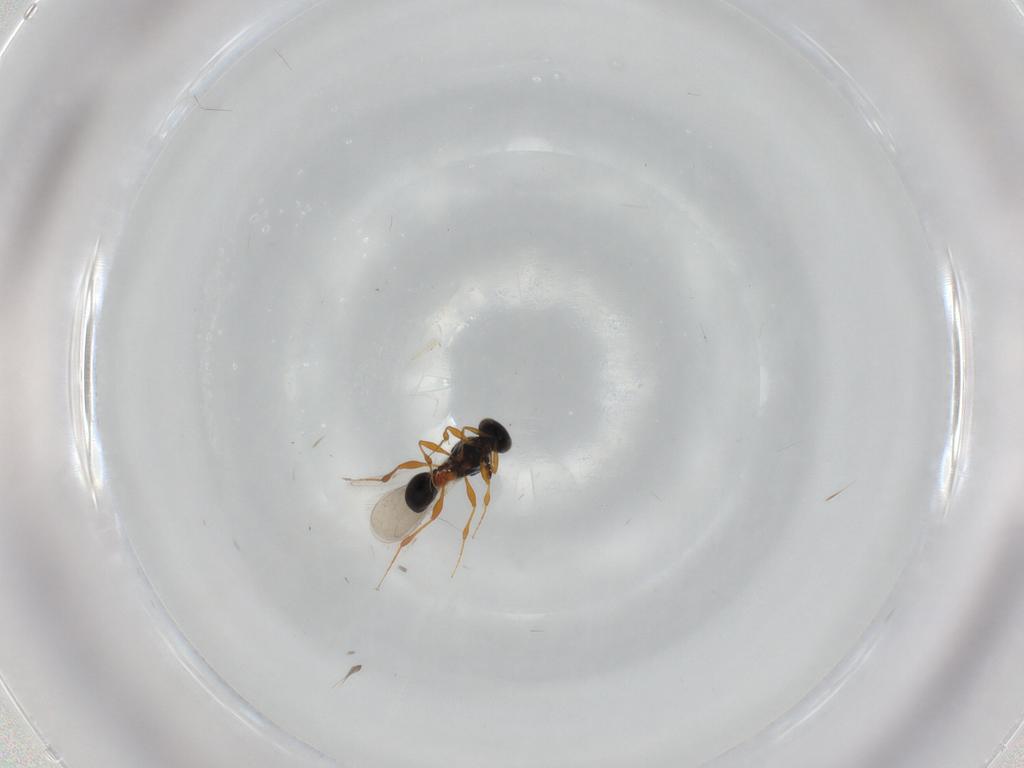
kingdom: Animalia
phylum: Arthropoda
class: Insecta
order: Hymenoptera
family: Platygastridae
